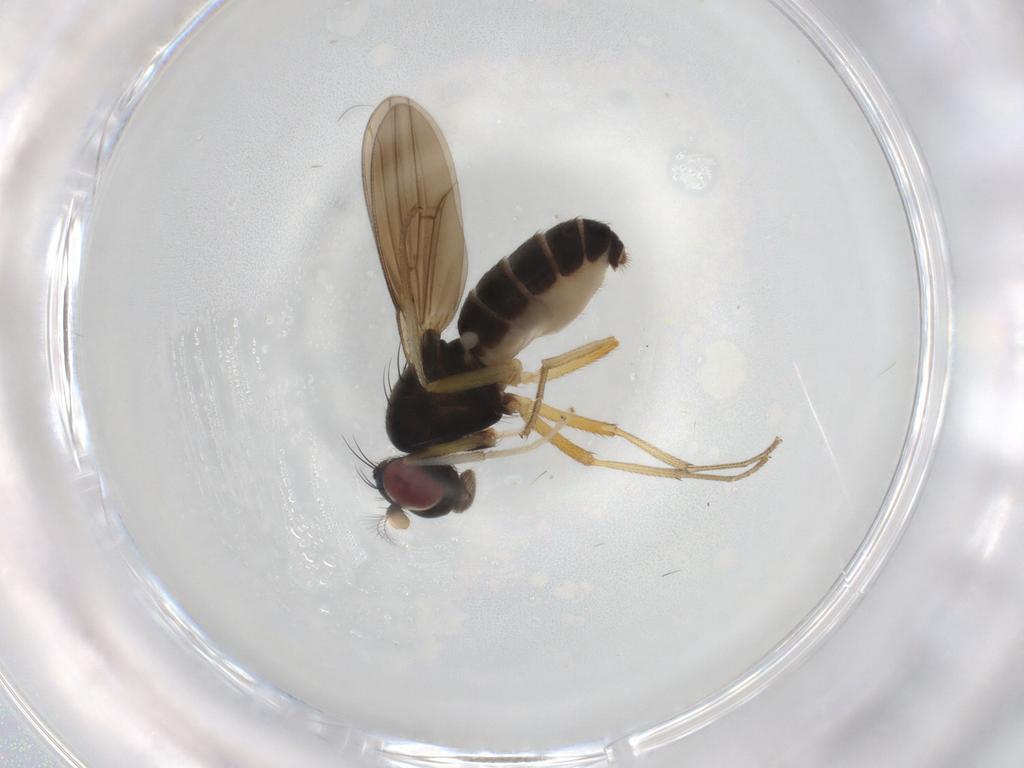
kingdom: Animalia
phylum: Arthropoda
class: Insecta
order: Diptera
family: Lauxaniidae
